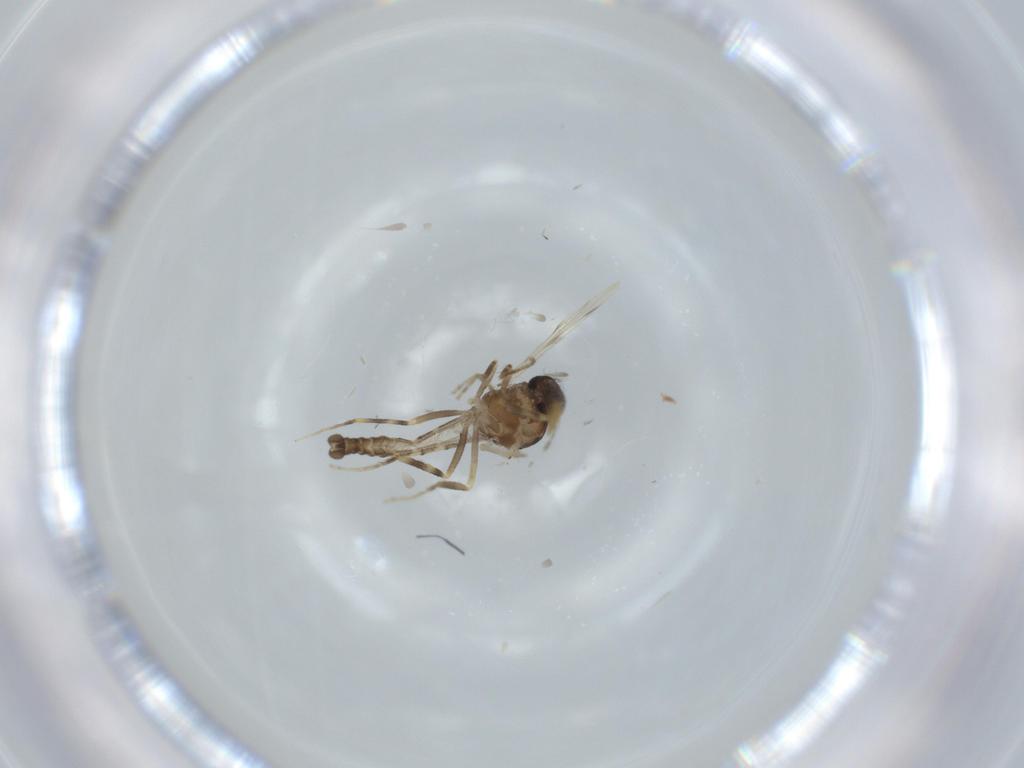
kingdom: Animalia
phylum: Arthropoda
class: Insecta
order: Diptera
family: Ceratopogonidae
